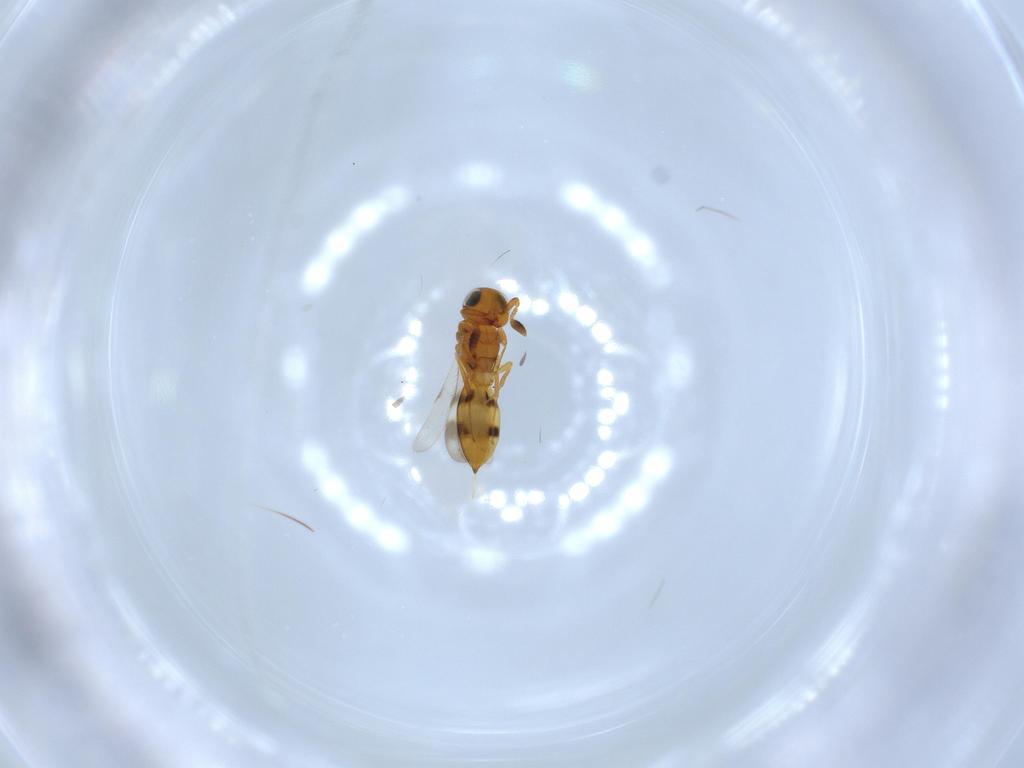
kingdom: Animalia
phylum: Arthropoda
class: Insecta
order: Hymenoptera
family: Scelionidae
